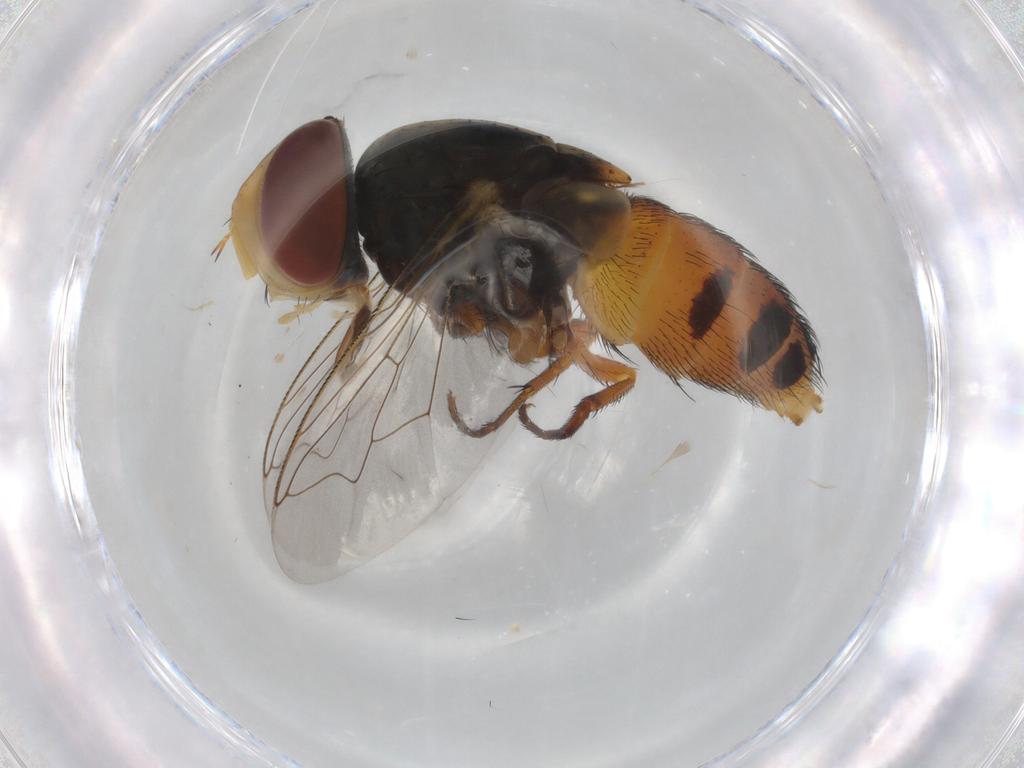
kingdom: Animalia
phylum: Arthropoda
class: Insecta
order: Diptera
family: Sarcophagidae
